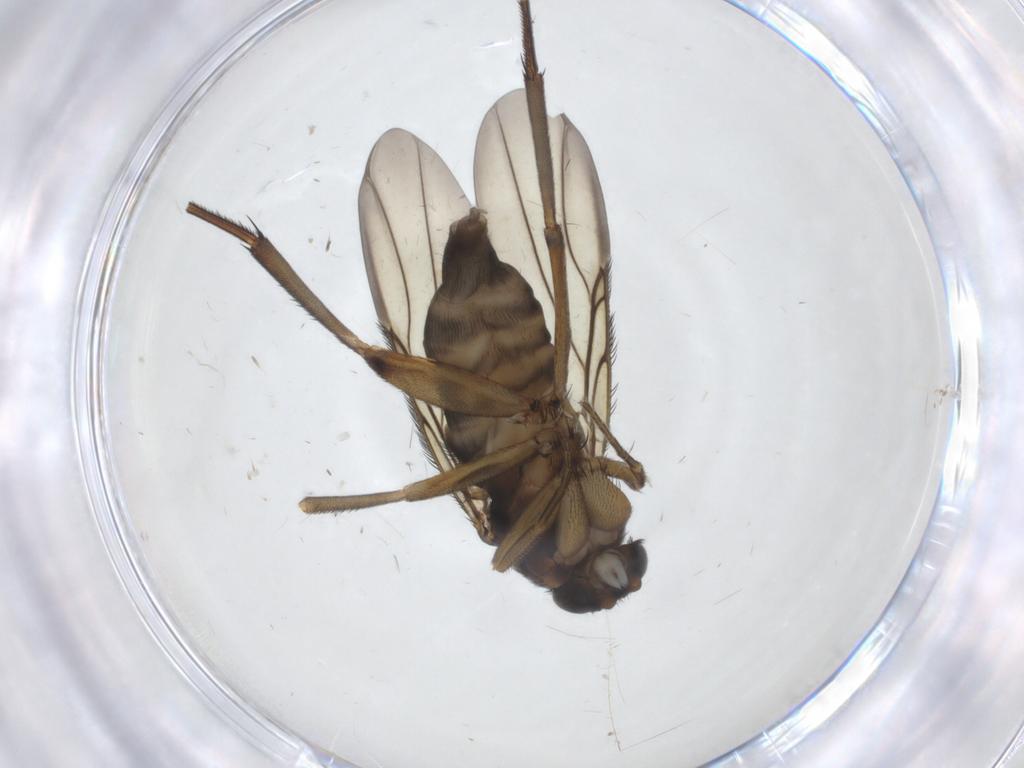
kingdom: Animalia
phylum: Arthropoda
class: Insecta
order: Diptera
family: Phoridae
